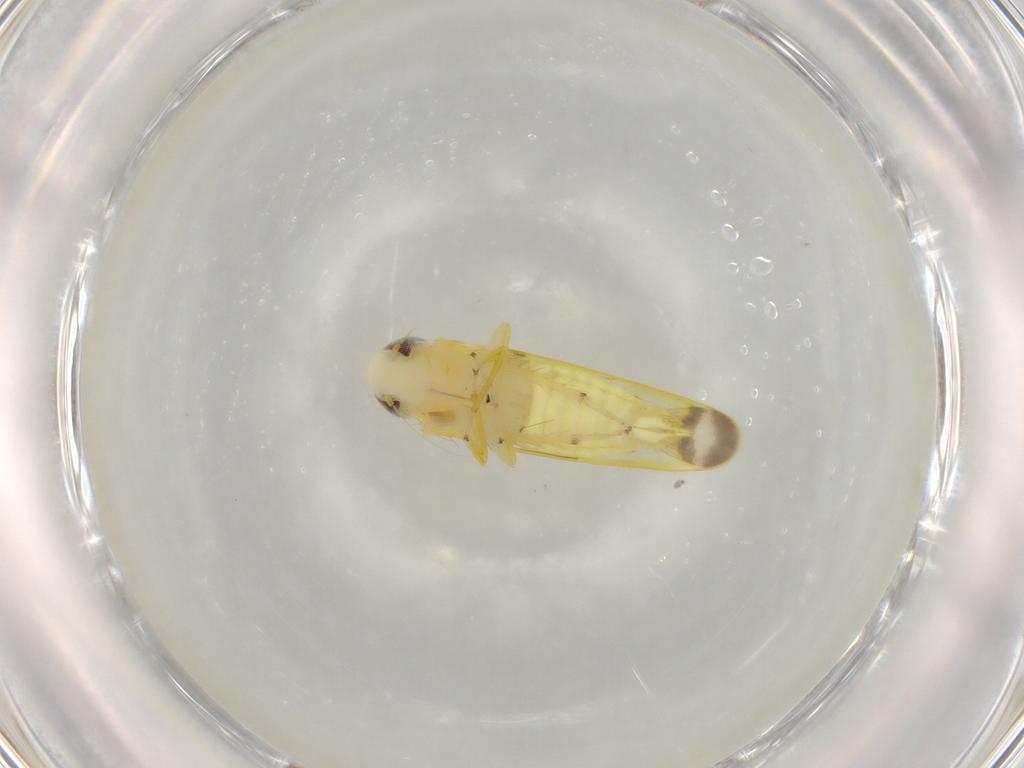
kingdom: Animalia
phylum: Arthropoda
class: Insecta
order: Hemiptera
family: Cicadellidae
